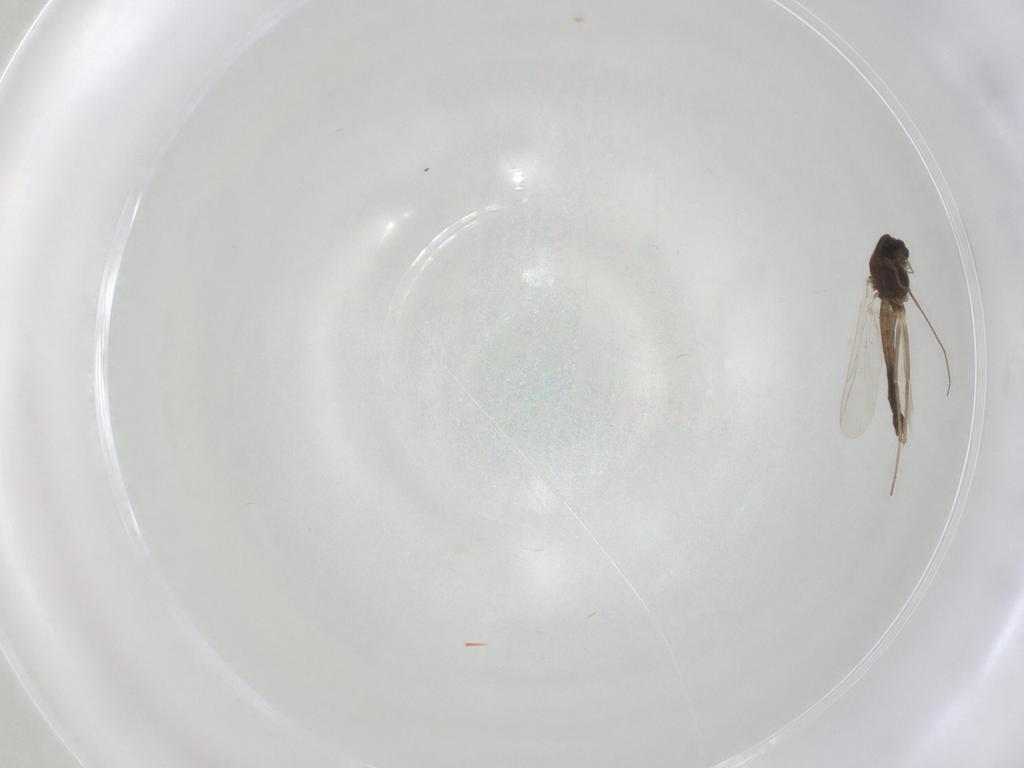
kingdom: Animalia
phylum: Arthropoda
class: Insecta
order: Diptera
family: Chironomidae
